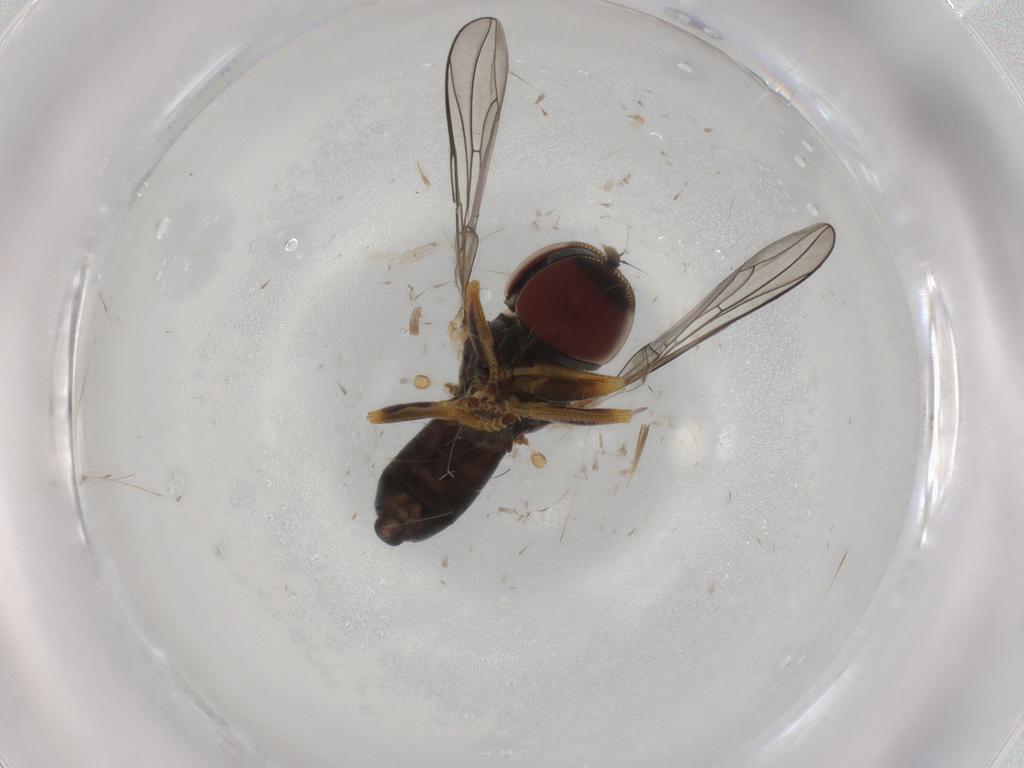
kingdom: Animalia
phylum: Arthropoda
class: Insecta
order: Diptera
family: Pipunculidae
